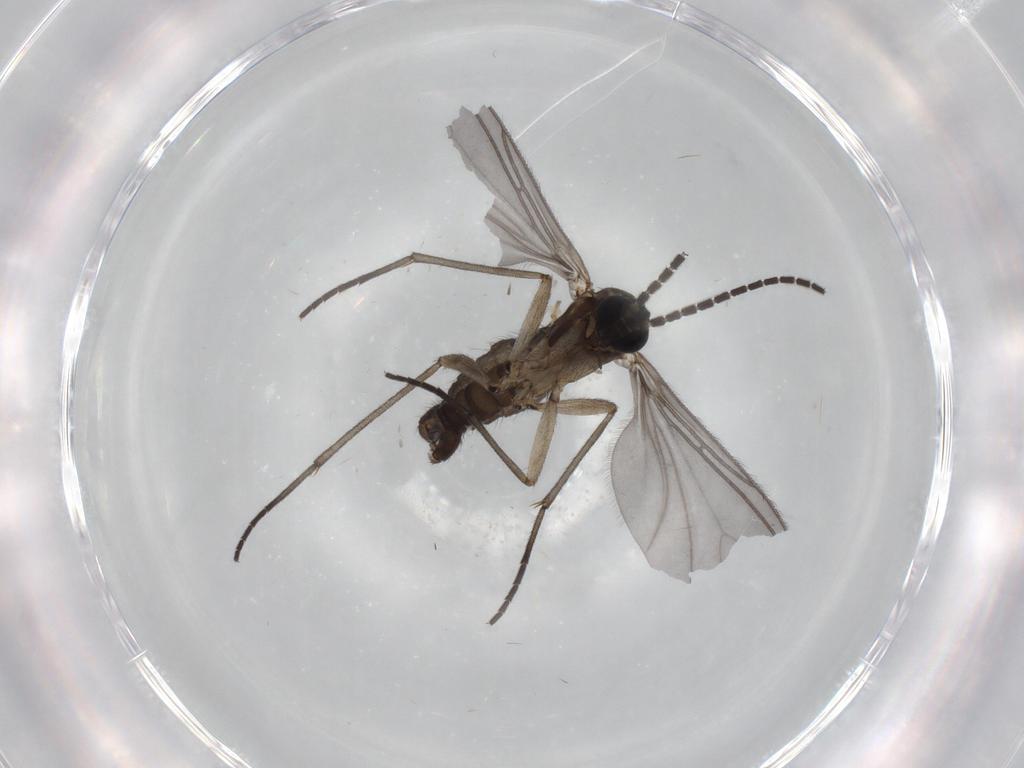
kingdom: Animalia
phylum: Arthropoda
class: Insecta
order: Diptera
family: Sciaridae
